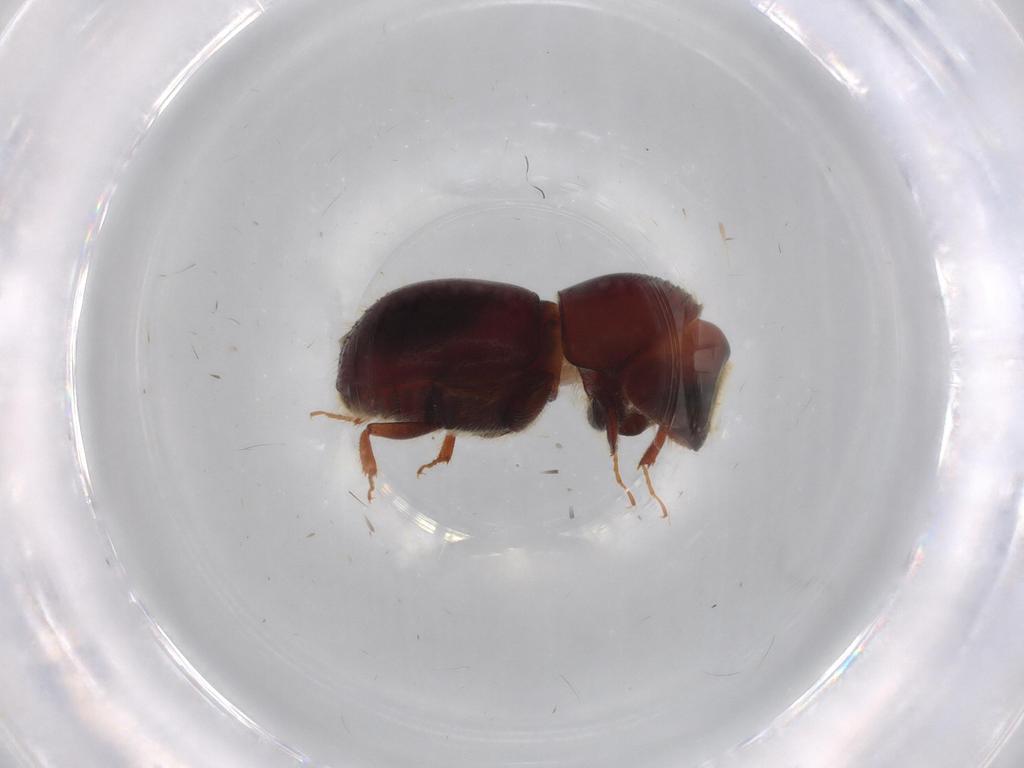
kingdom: Animalia
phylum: Arthropoda
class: Insecta
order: Coleoptera
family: Curculionidae
